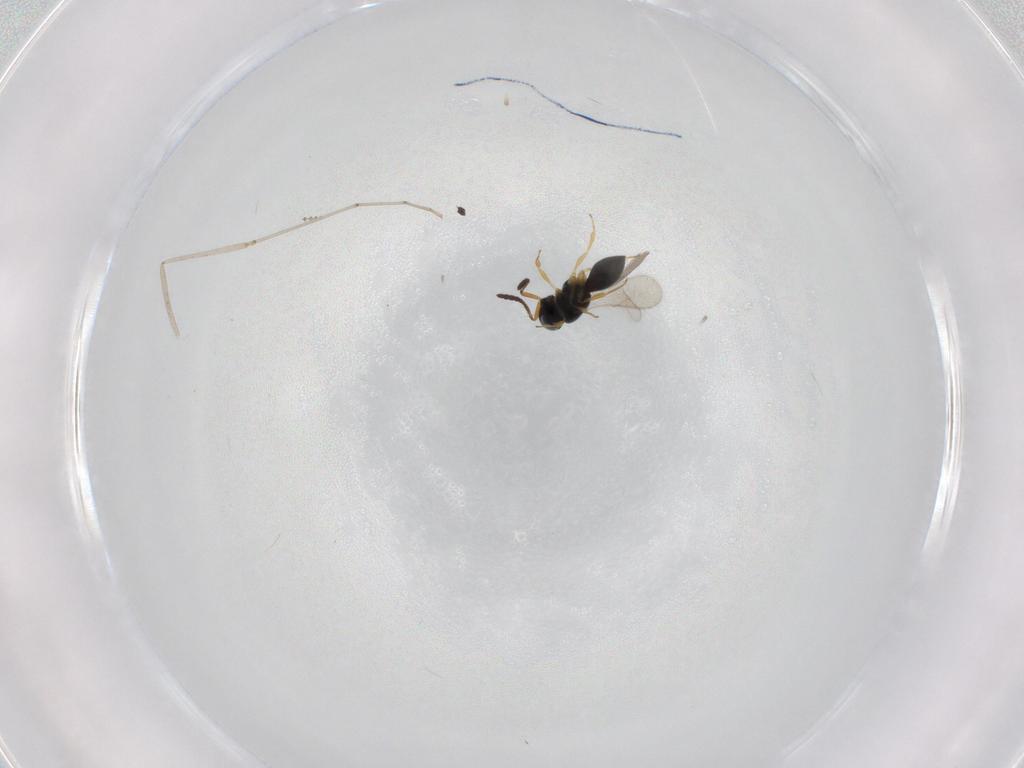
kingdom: Animalia
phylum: Arthropoda
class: Insecta
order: Hymenoptera
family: Scelionidae
